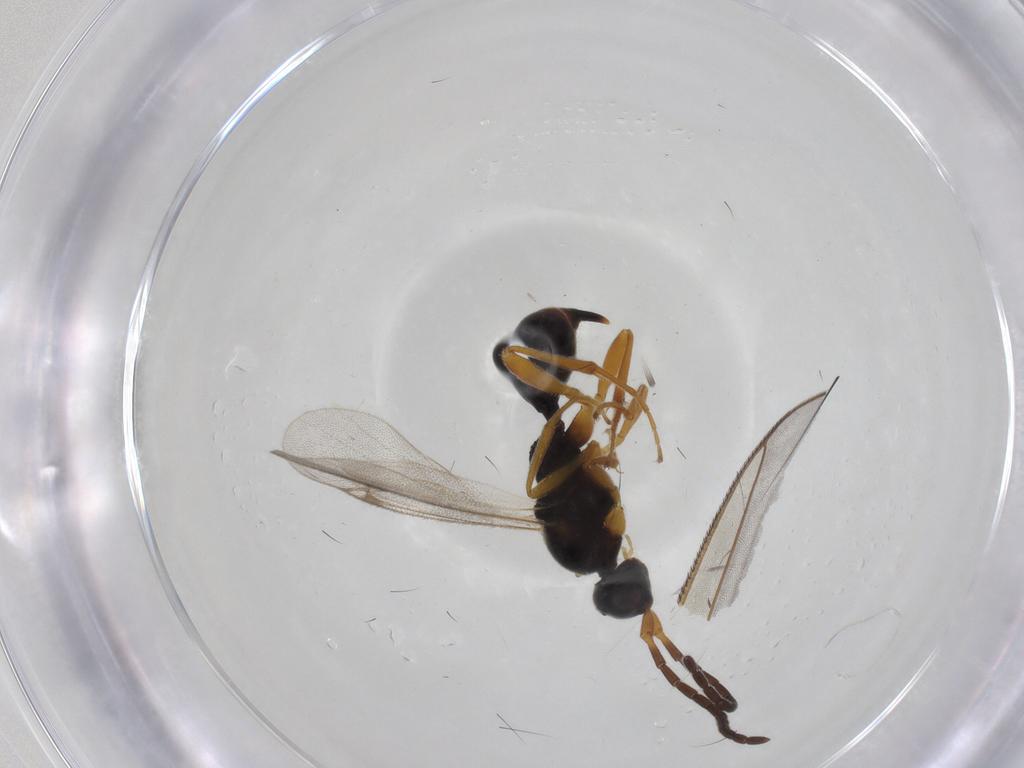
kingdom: Animalia
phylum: Arthropoda
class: Insecta
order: Hymenoptera
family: Proctotrupidae
